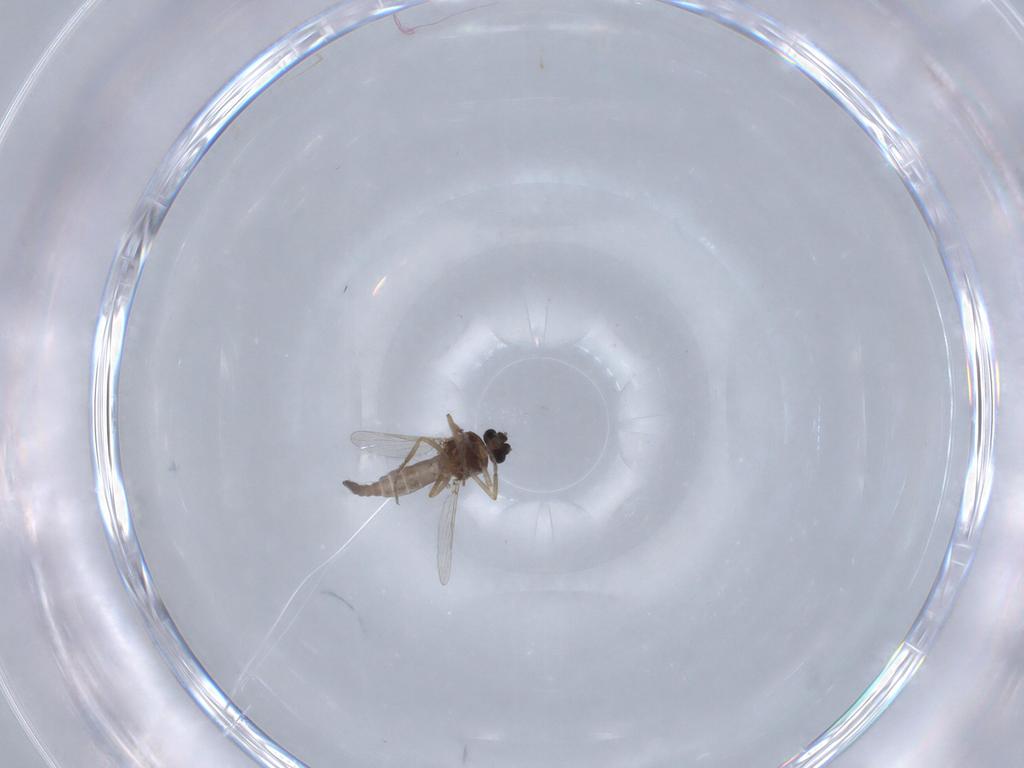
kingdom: Animalia
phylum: Arthropoda
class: Insecta
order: Diptera
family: Ceratopogonidae
